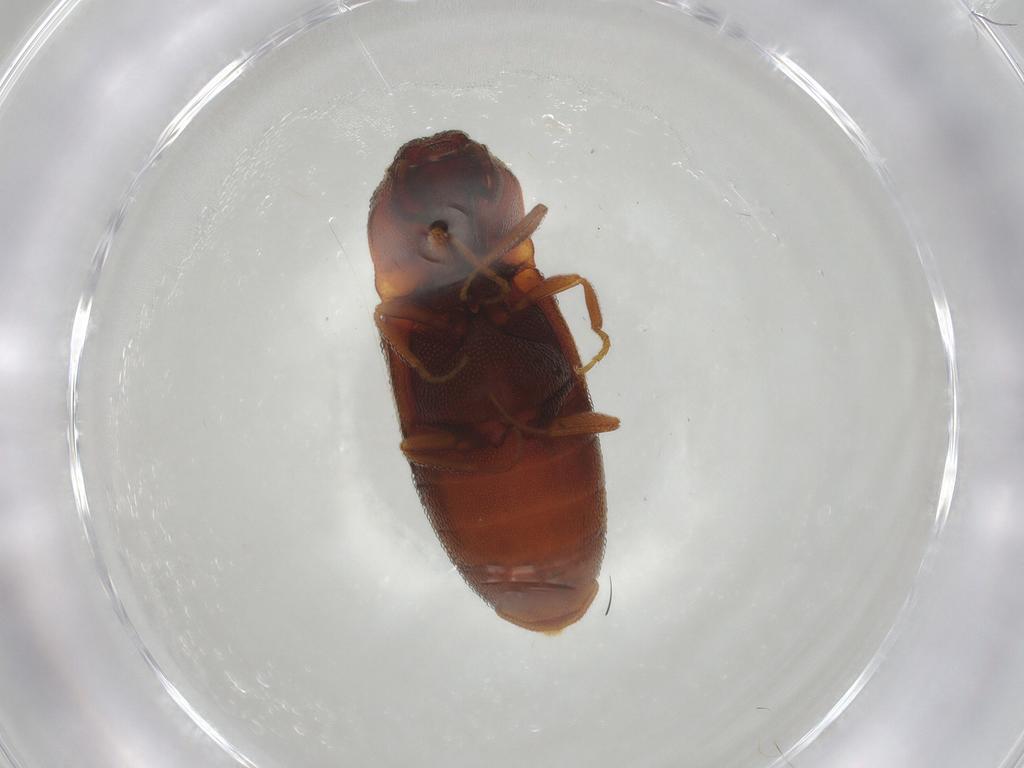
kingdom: Animalia
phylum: Arthropoda
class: Insecta
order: Coleoptera
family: Elateridae
